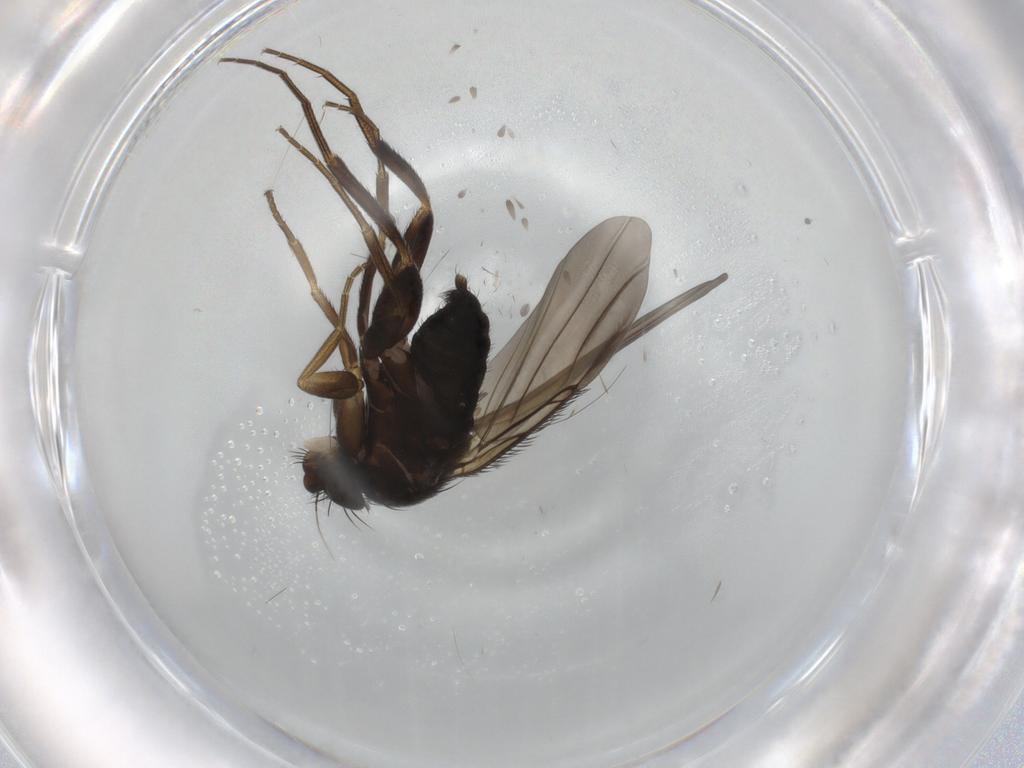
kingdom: Animalia
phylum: Arthropoda
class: Insecta
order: Diptera
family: Phoridae
